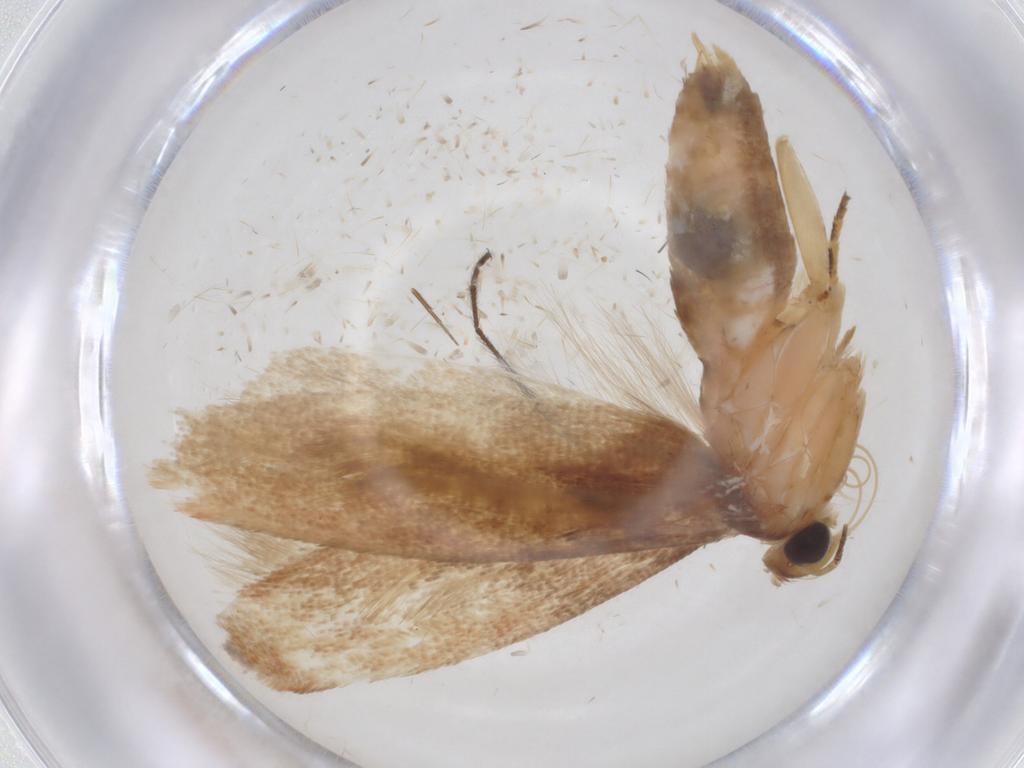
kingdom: Animalia
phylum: Arthropoda
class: Insecta
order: Lepidoptera
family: Gelechiidae
